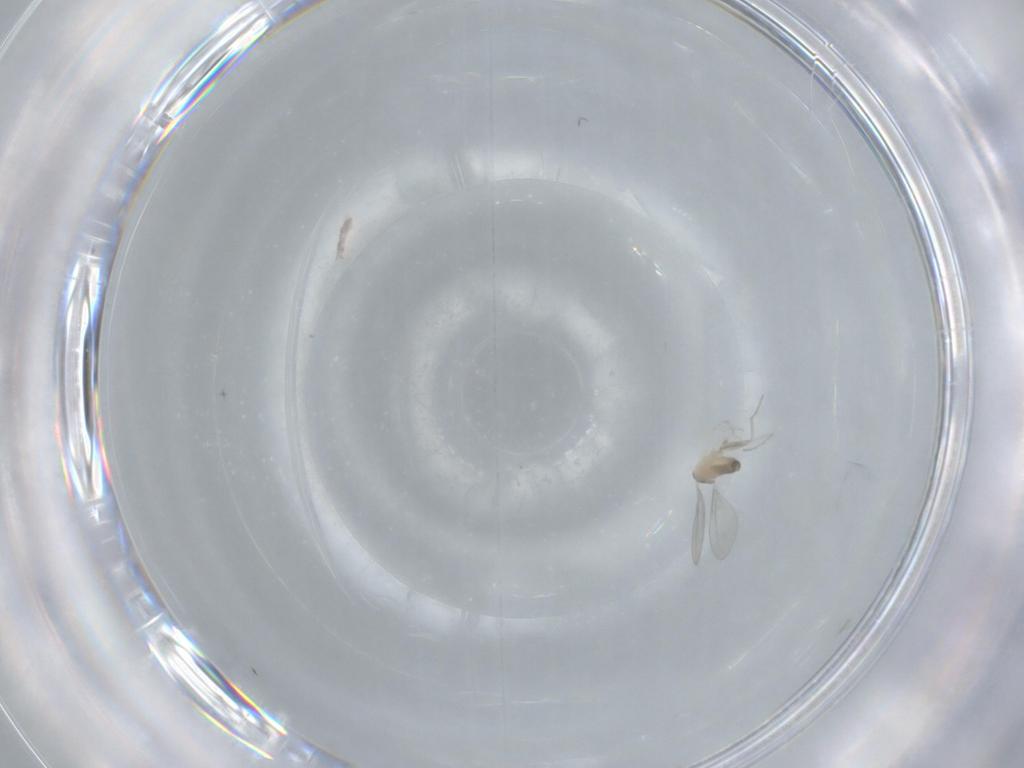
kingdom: Animalia
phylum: Arthropoda
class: Insecta
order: Diptera
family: Cecidomyiidae
